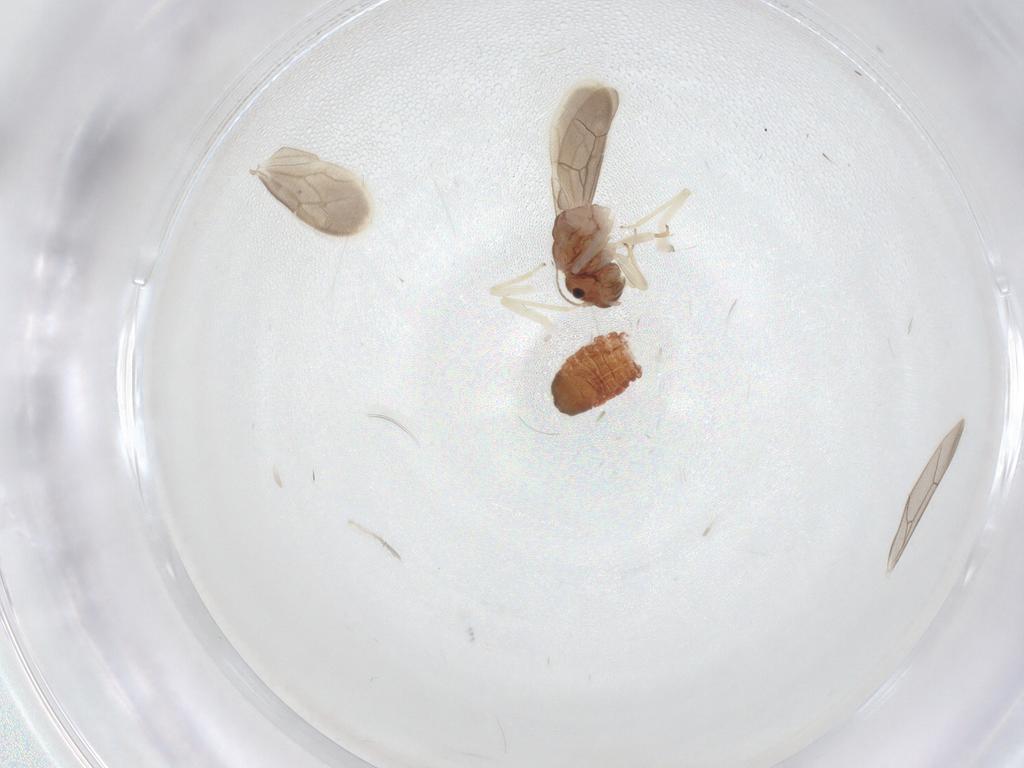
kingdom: Animalia
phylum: Arthropoda
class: Insecta
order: Psocodea
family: Archipsocidae
